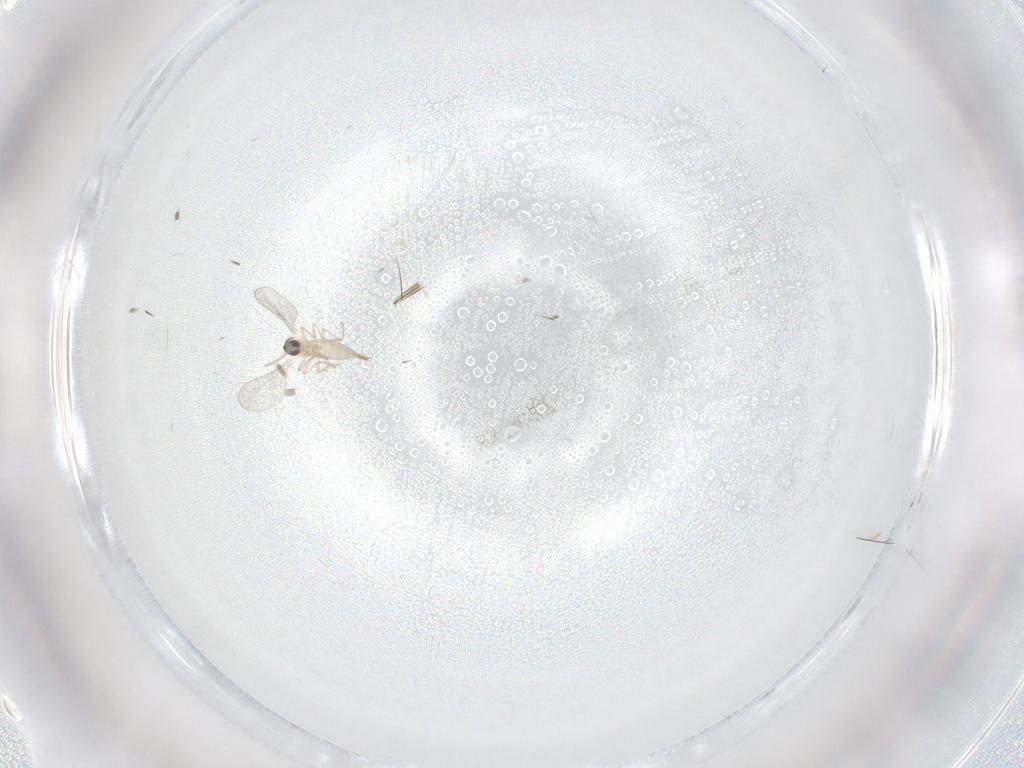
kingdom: Animalia
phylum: Arthropoda
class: Insecta
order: Diptera
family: Cecidomyiidae
